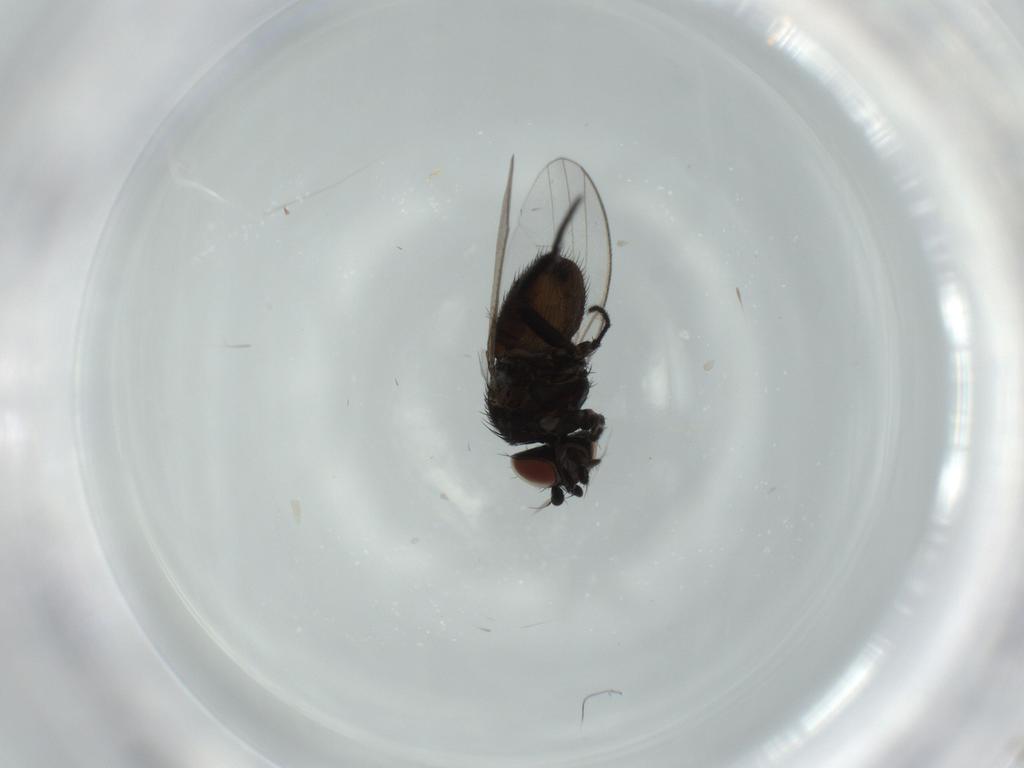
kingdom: Animalia
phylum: Arthropoda
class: Insecta
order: Diptera
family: Milichiidae
